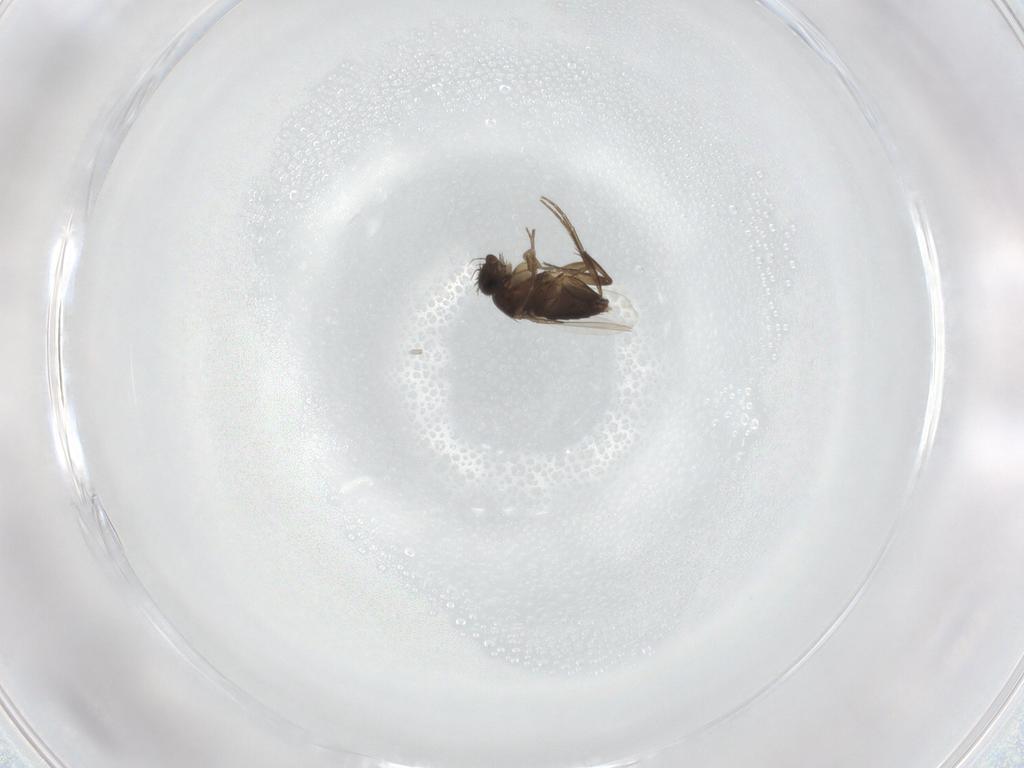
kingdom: Animalia
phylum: Arthropoda
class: Insecta
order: Diptera
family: Phoridae
